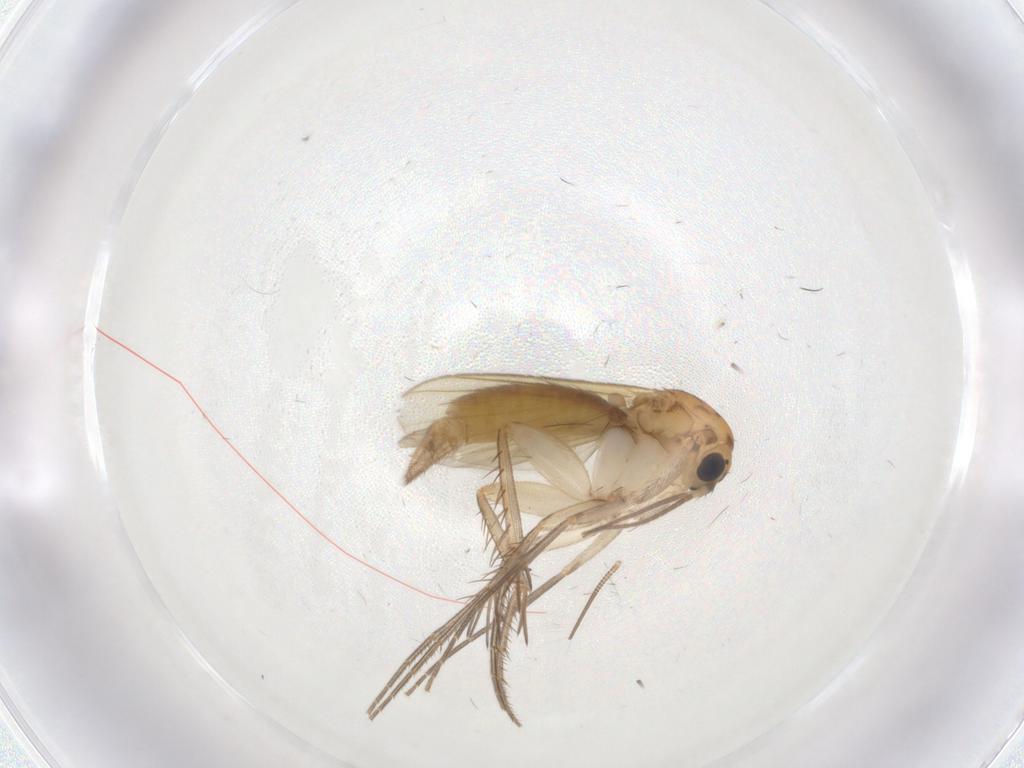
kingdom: Animalia
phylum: Arthropoda
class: Insecta
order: Diptera
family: Mycetophilidae
